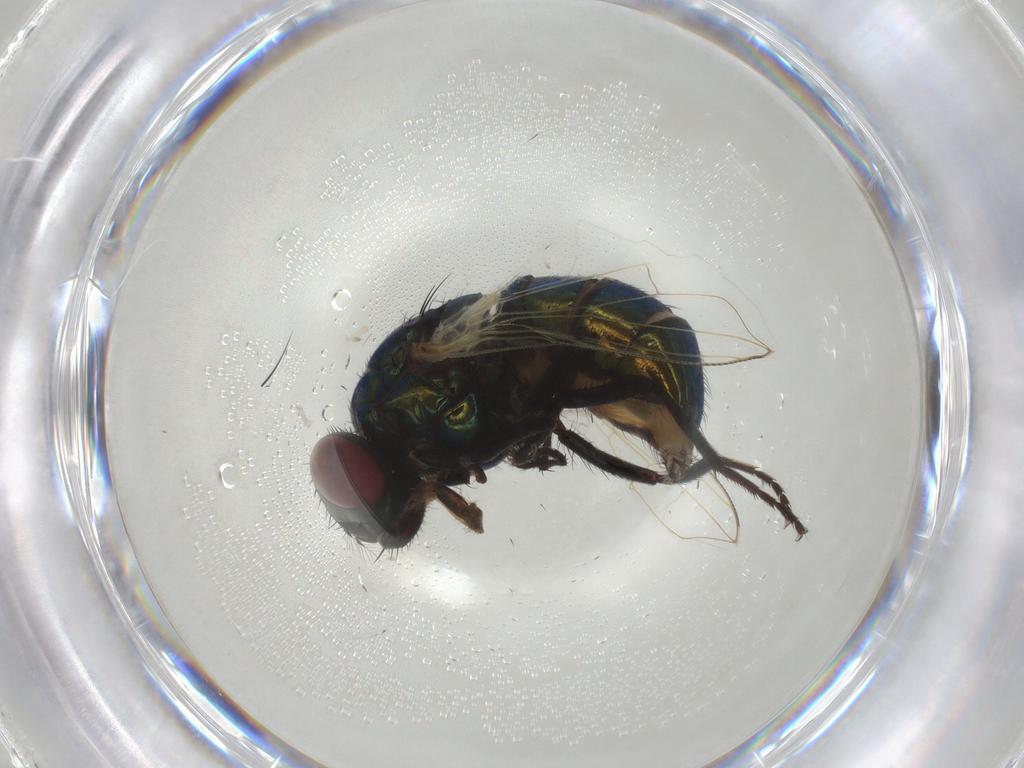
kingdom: Animalia
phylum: Arthropoda
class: Insecta
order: Diptera
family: Muscidae
